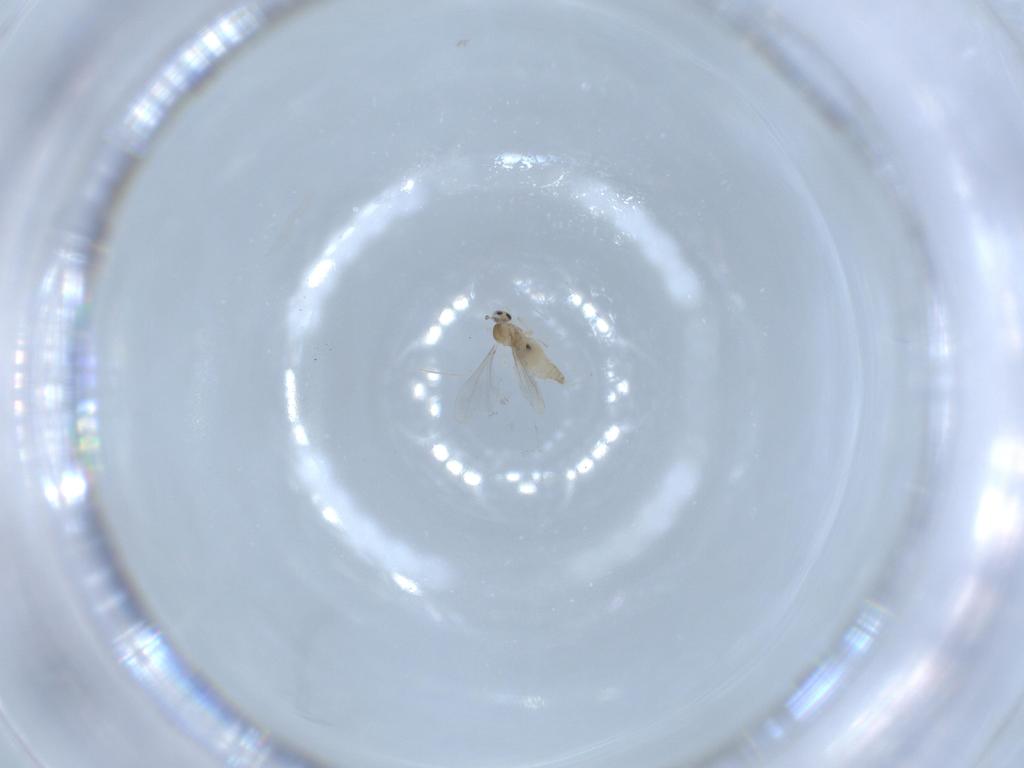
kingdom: Animalia
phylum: Arthropoda
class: Insecta
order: Diptera
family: Cecidomyiidae
